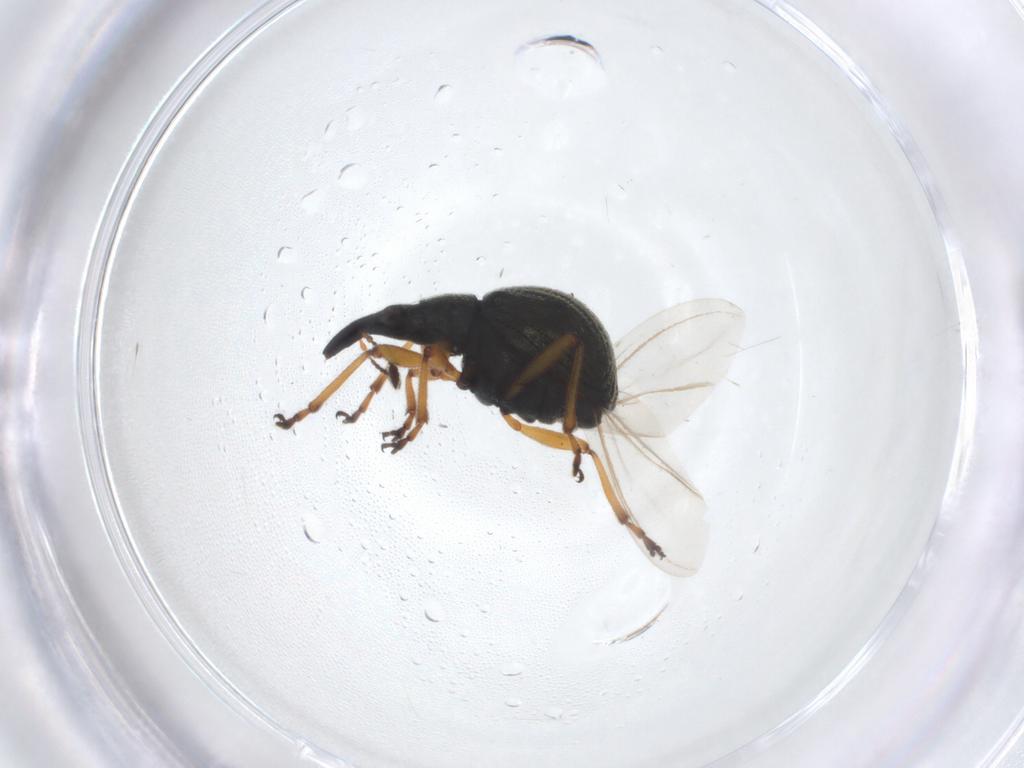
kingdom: Animalia
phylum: Arthropoda
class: Insecta
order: Coleoptera
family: Brentidae
